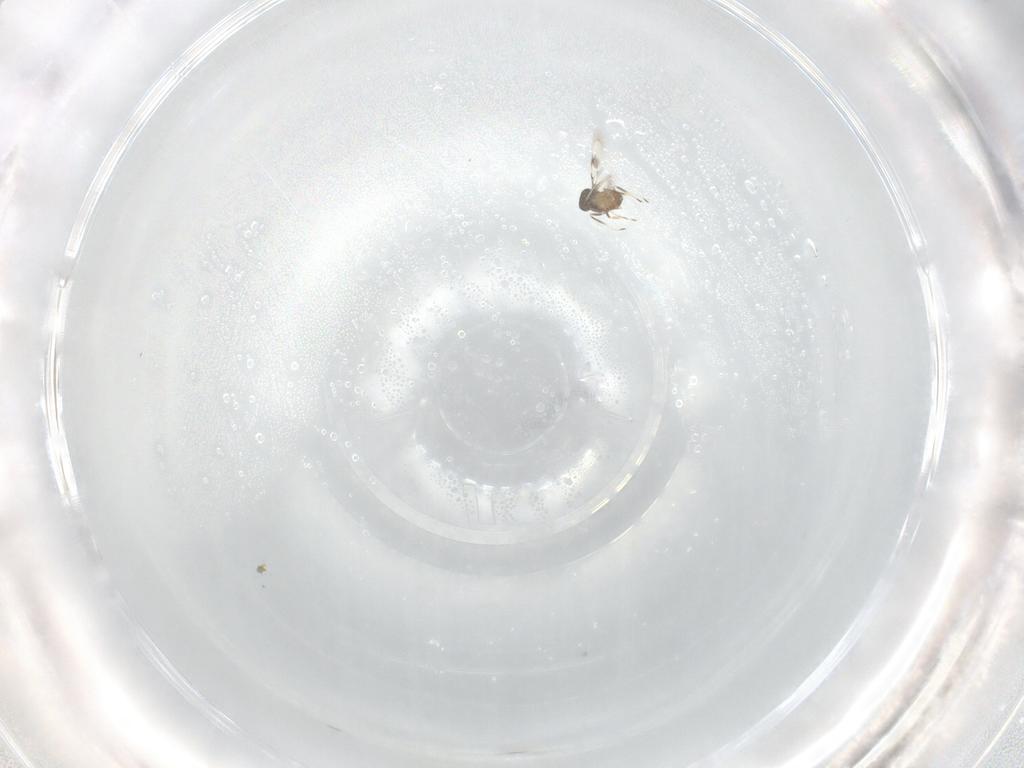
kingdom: Animalia
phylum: Arthropoda
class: Insecta
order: Hymenoptera
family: Trichogrammatidae
